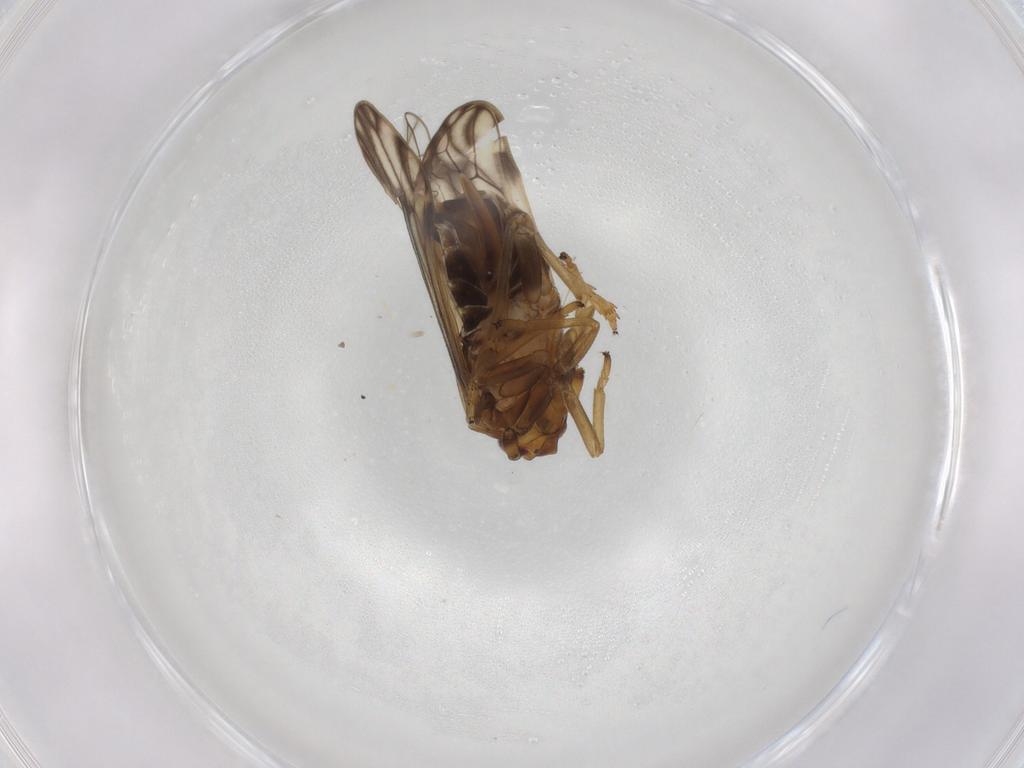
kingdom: Animalia
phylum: Arthropoda
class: Insecta
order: Hemiptera
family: Delphacidae
